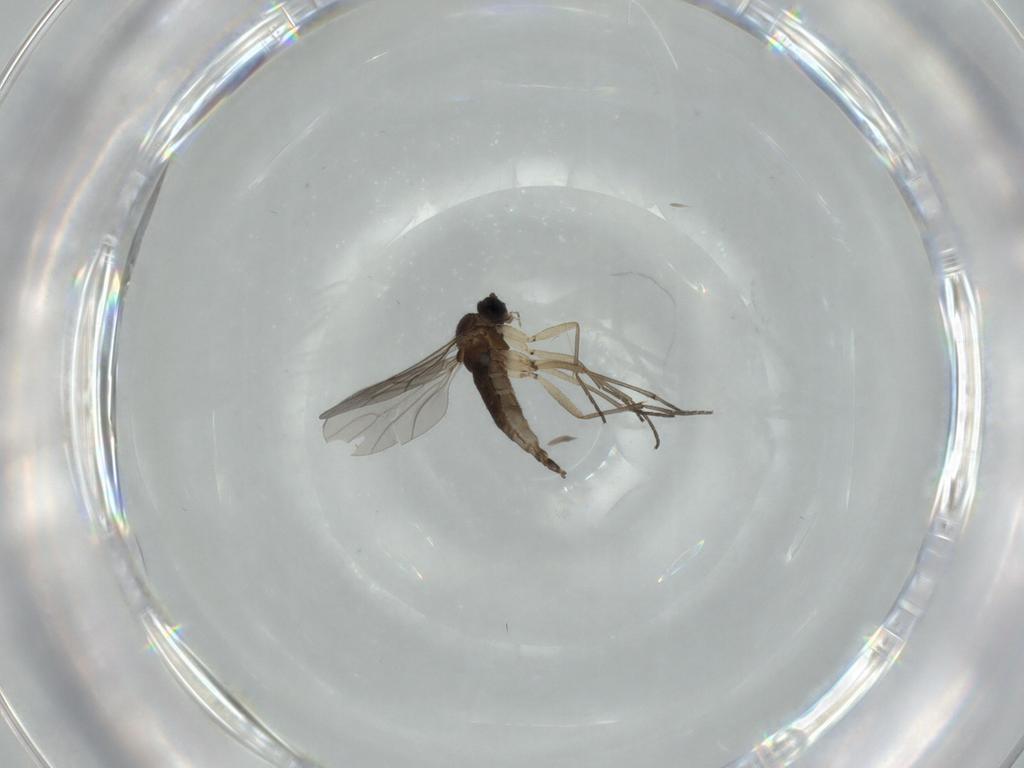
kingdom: Animalia
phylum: Arthropoda
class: Insecta
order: Diptera
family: Sciaridae
